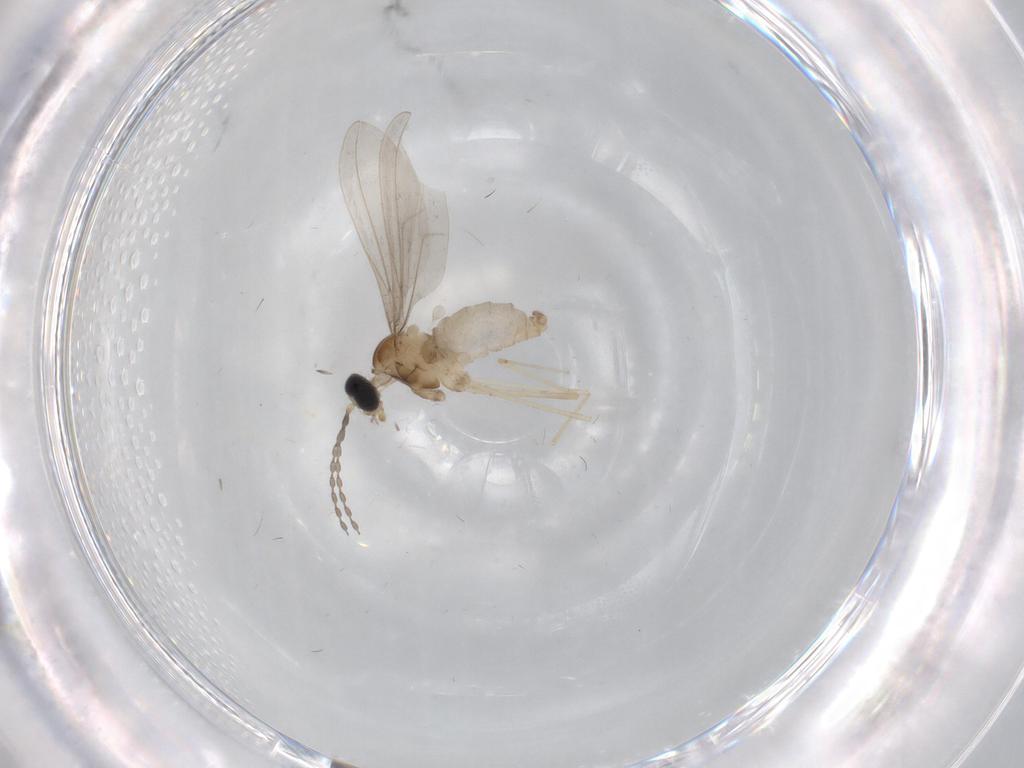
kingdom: Animalia
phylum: Arthropoda
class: Insecta
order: Diptera
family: Cecidomyiidae
